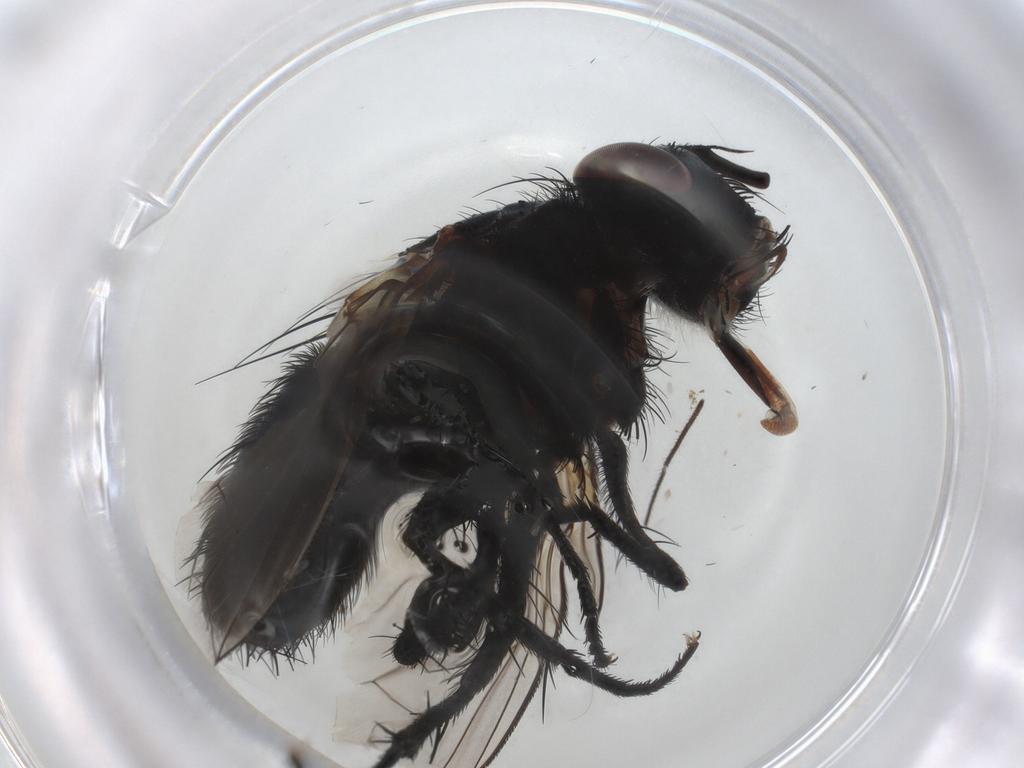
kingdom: Animalia
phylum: Arthropoda
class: Insecta
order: Diptera
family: Tachinidae
